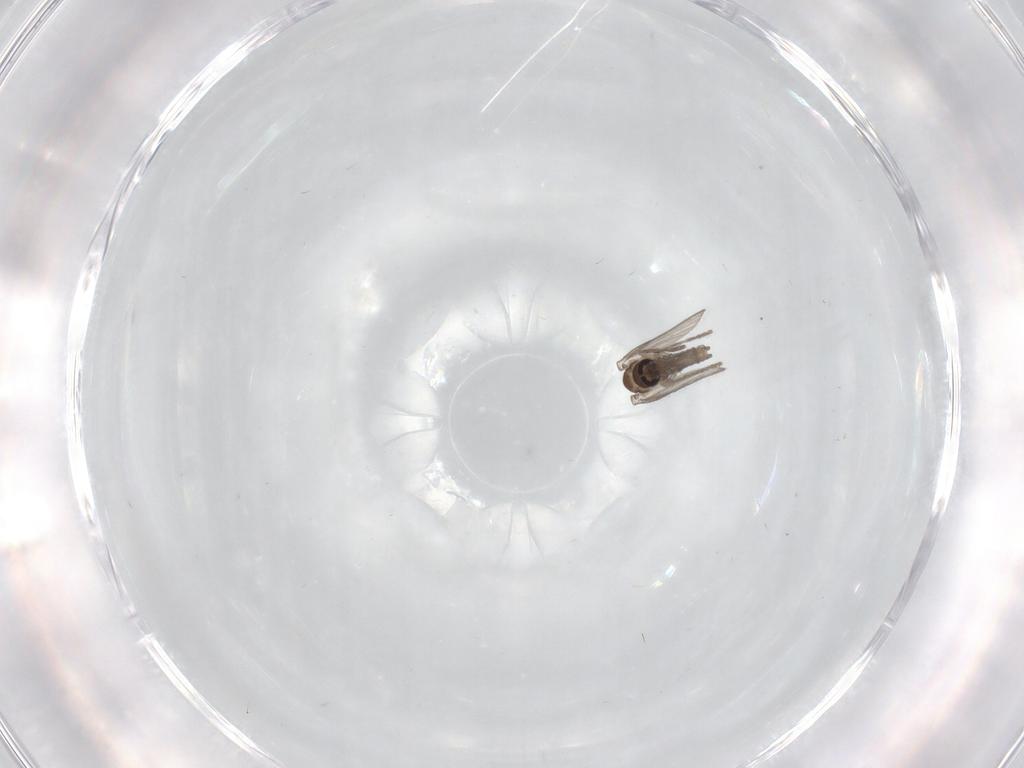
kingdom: Animalia
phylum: Arthropoda
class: Insecta
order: Diptera
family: Psychodidae
